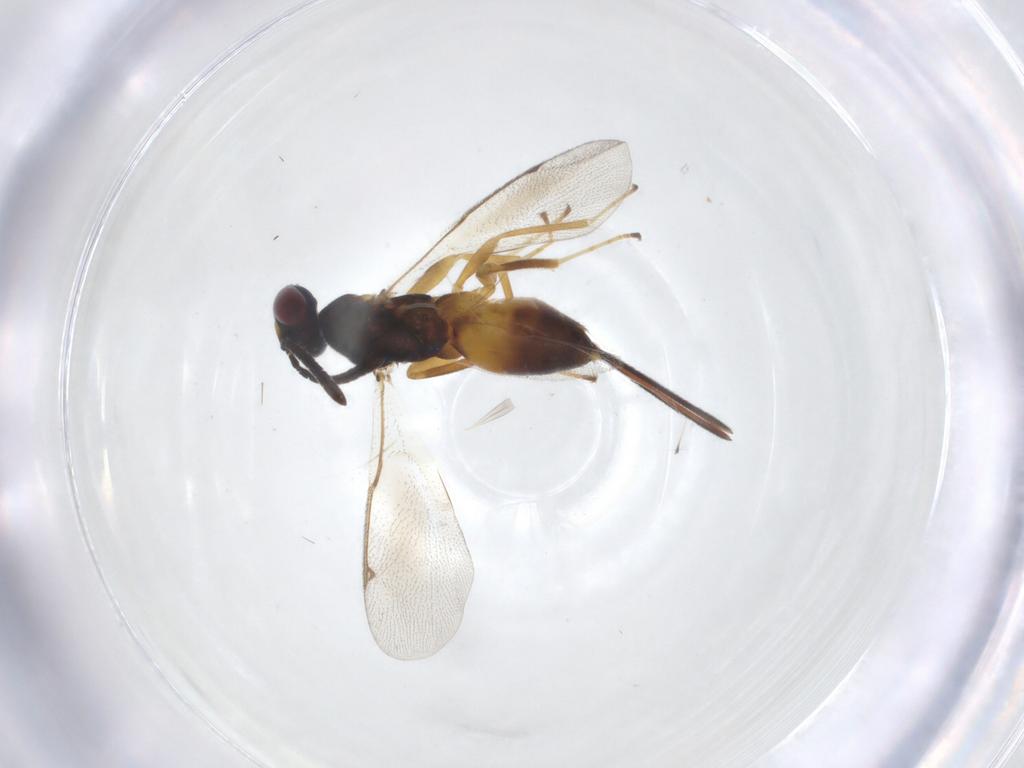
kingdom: Animalia
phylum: Arthropoda
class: Insecta
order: Hymenoptera
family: Torymidae
